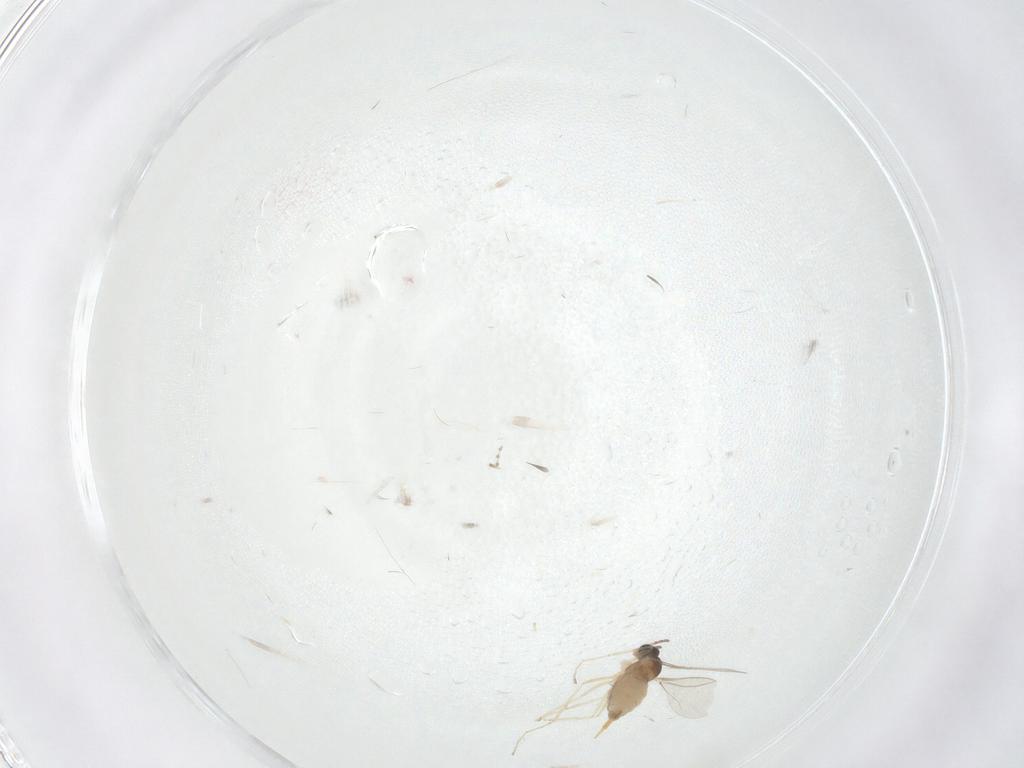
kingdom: Animalia
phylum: Arthropoda
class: Insecta
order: Diptera
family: Cecidomyiidae
